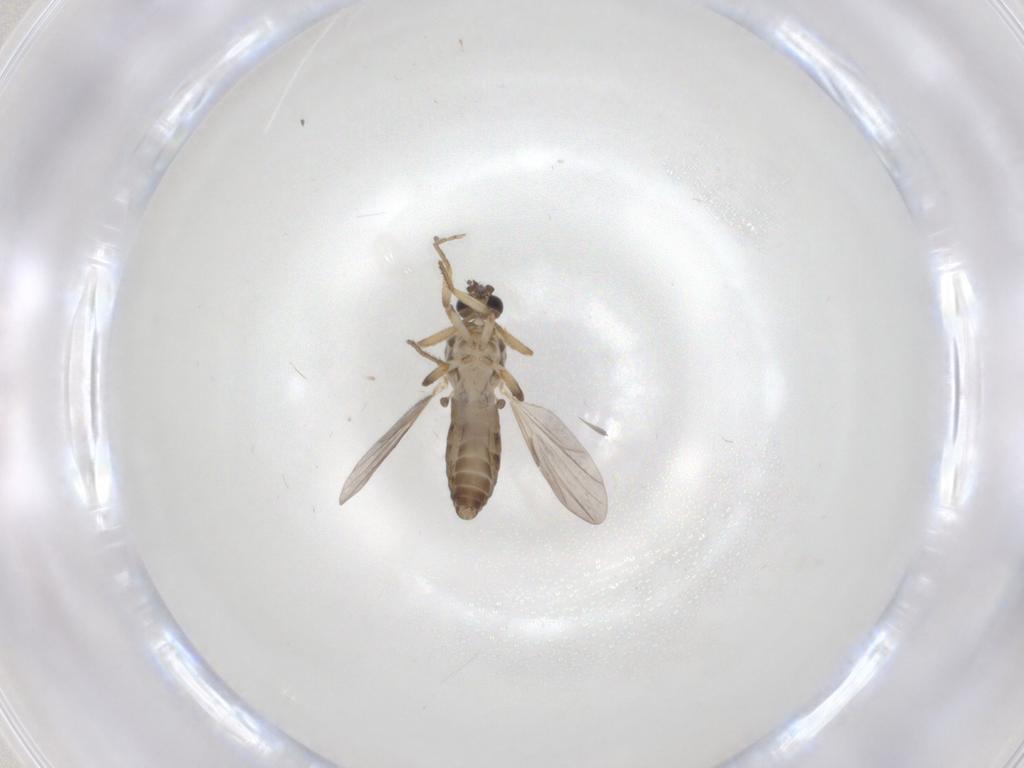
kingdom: Animalia
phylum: Arthropoda
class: Insecta
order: Diptera
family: Ceratopogonidae
